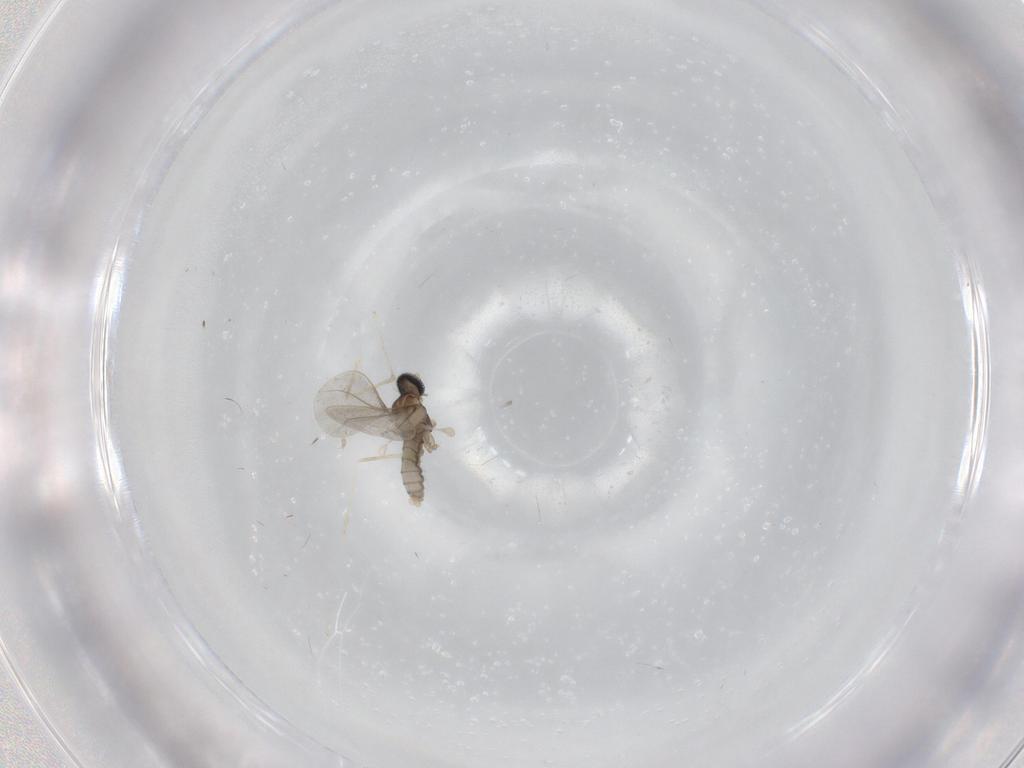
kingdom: Animalia
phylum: Arthropoda
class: Insecta
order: Diptera
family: Cecidomyiidae
